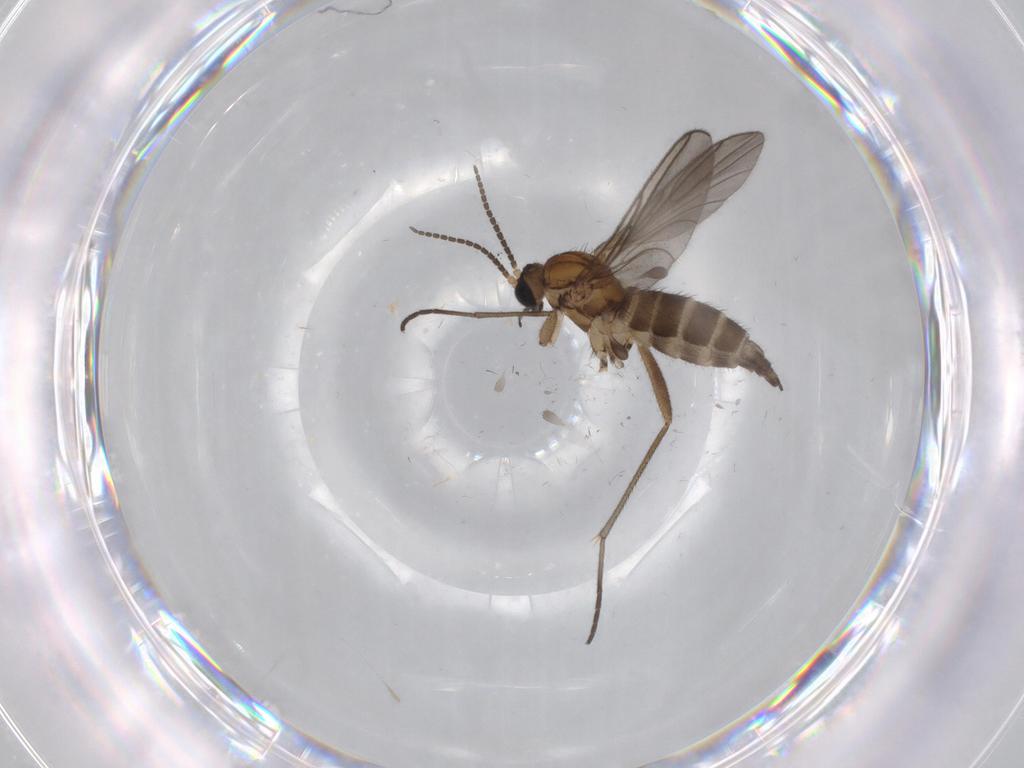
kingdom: Animalia
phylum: Arthropoda
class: Insecta
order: Diptera
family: Sciaridae
